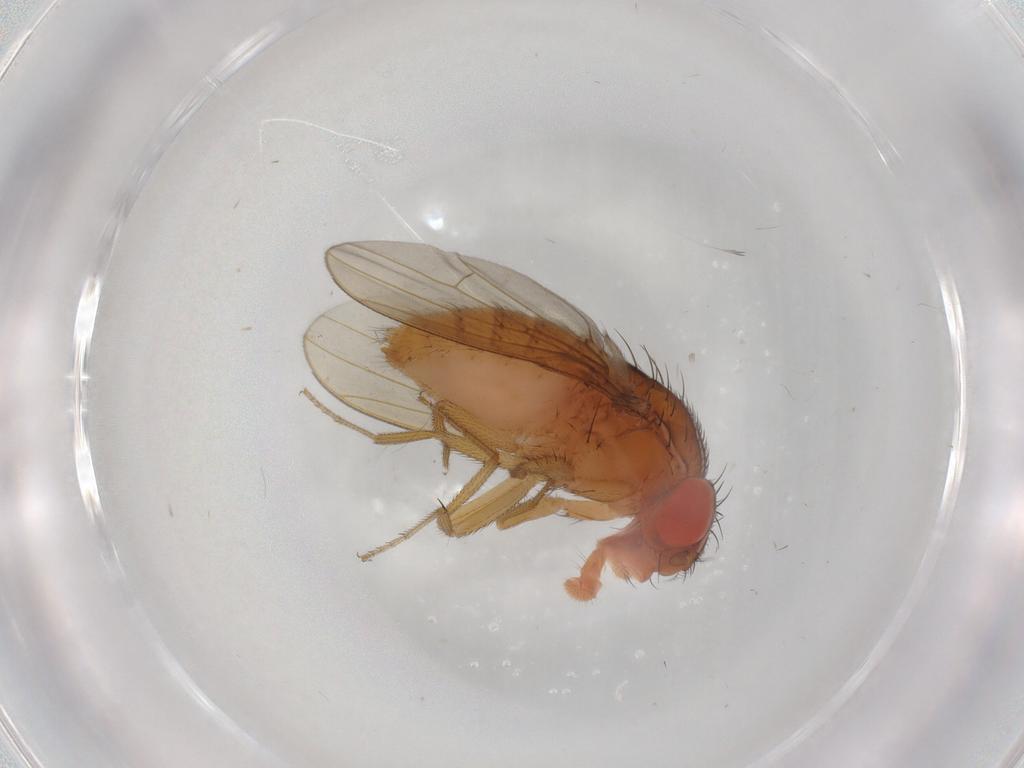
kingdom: Animalia
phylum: Arthropoda
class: Insecta
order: Diptera
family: Drosophilidae
